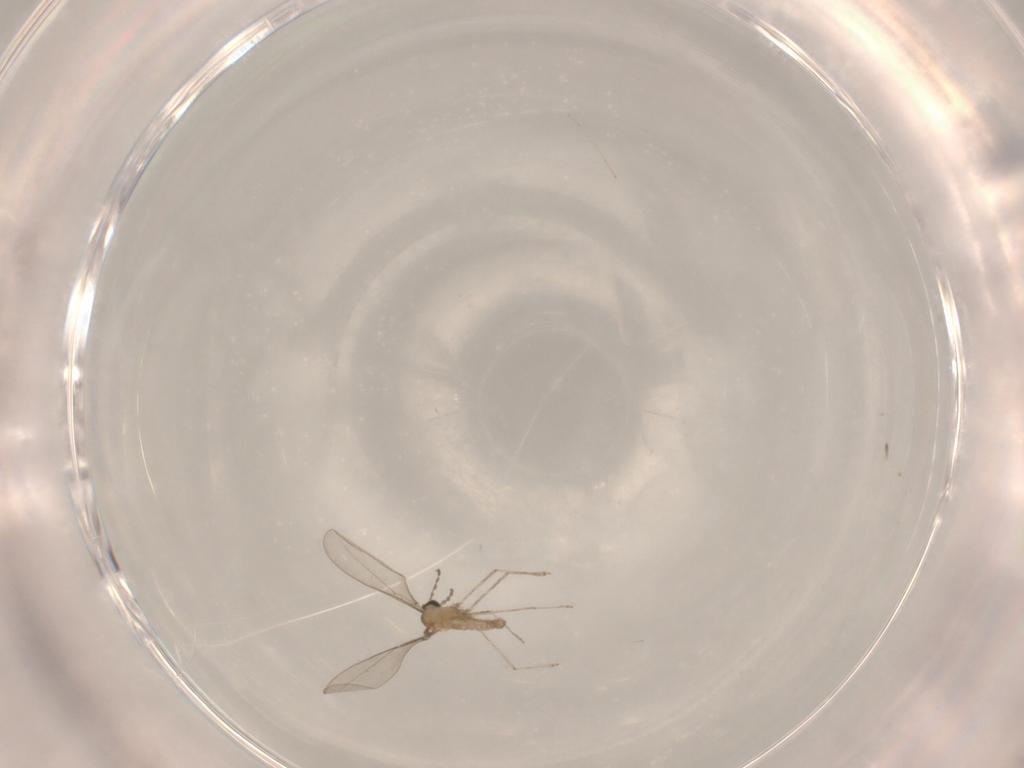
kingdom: Animalia
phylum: Arthropoda
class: Insecta
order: Diptera
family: Cecidomyiidae
